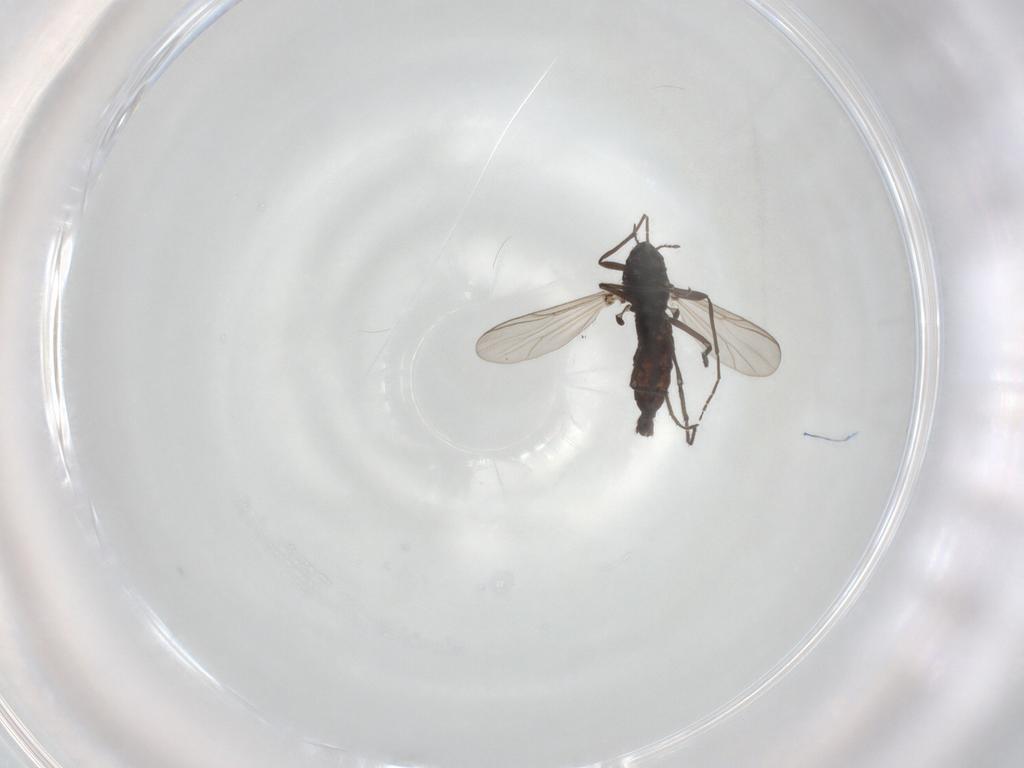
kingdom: Animalia
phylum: Arthropoda
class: Insecta
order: Diptera
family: Chironomidae
